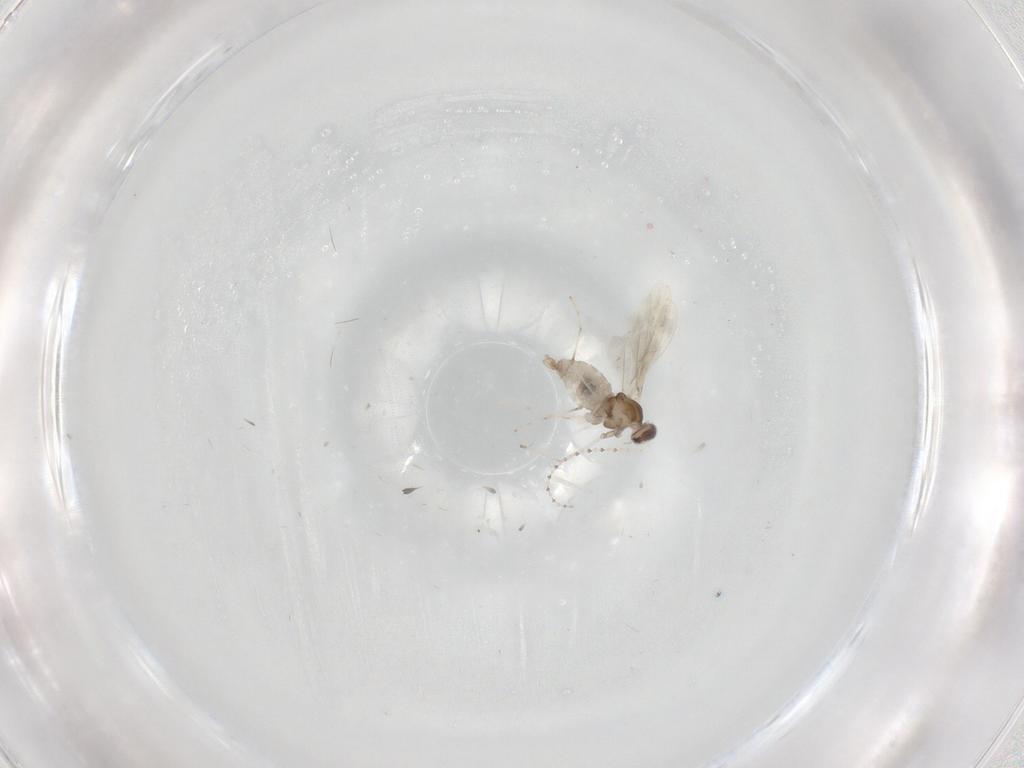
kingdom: Animalia
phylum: Arthropoda
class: Insecta
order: Diptera
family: Cecidomyiidae
